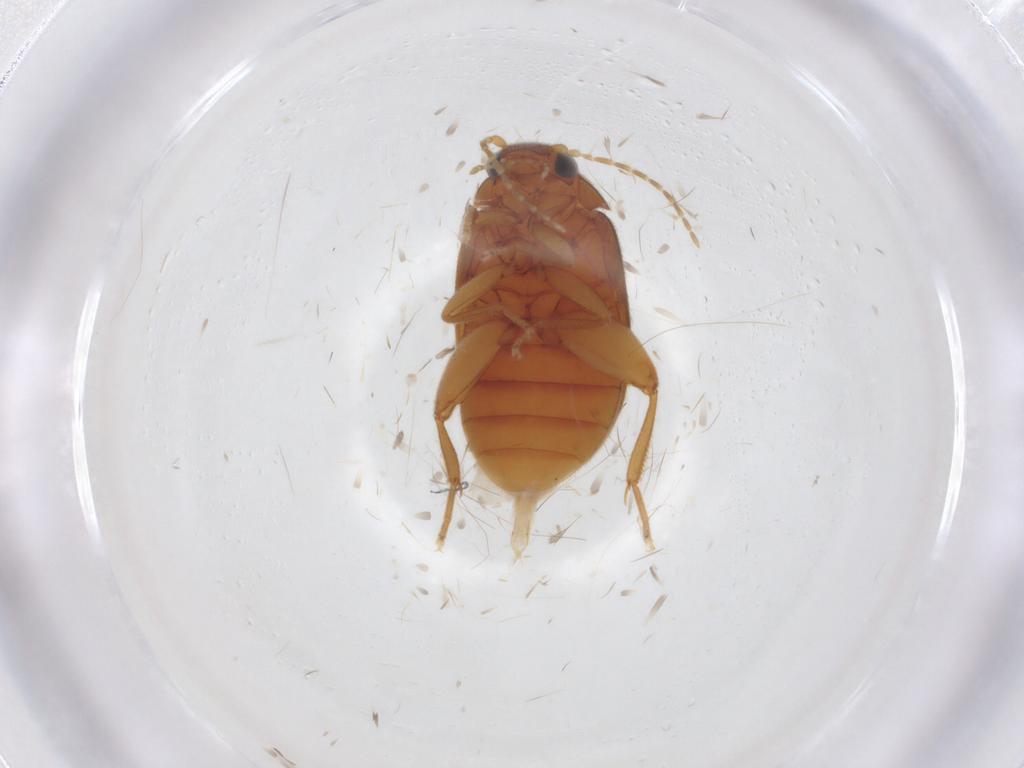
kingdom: Animalia
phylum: Arthropoda
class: Insecta
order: Coleoptera
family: Scirtidae
